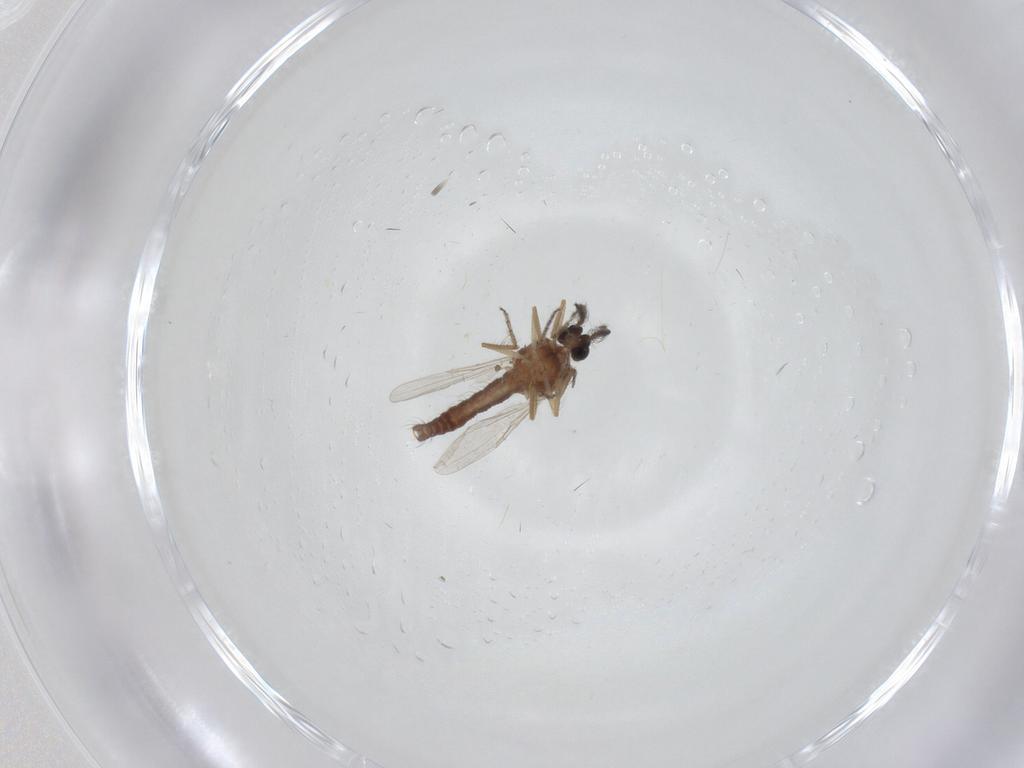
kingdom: Animalia
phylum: Arthropoda
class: Insecta
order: Diptera
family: Ceratopogonidae
